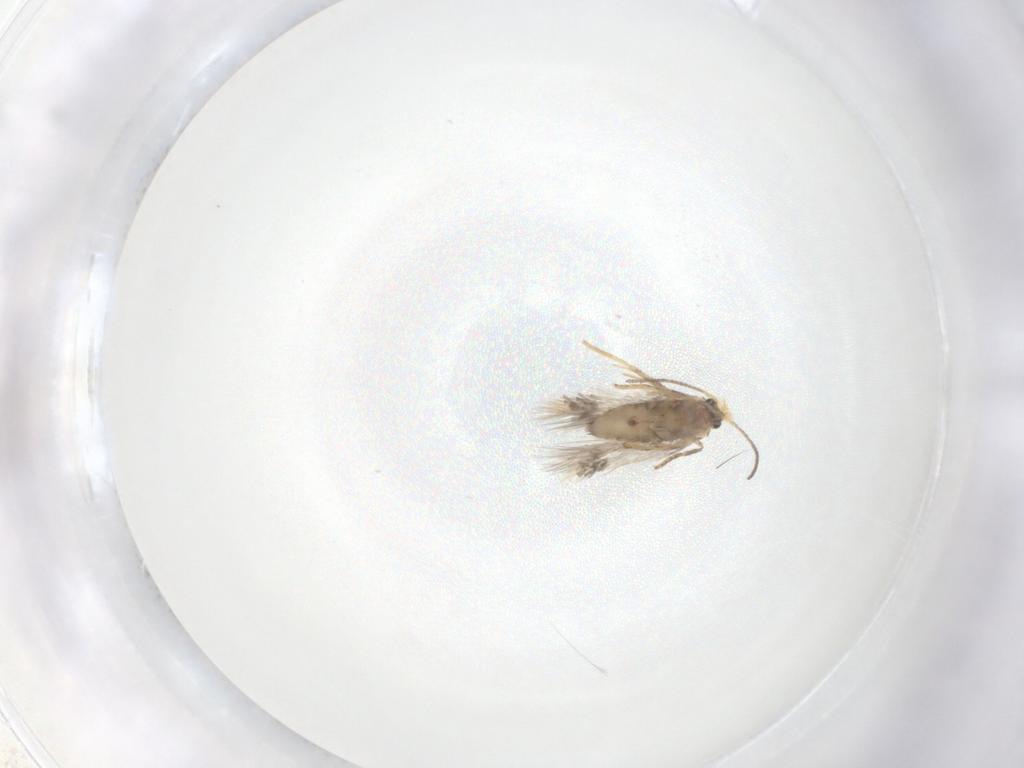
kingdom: Animalia
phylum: Arthropoda
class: Insecta
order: Lepidoptera
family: Nepticulidae
